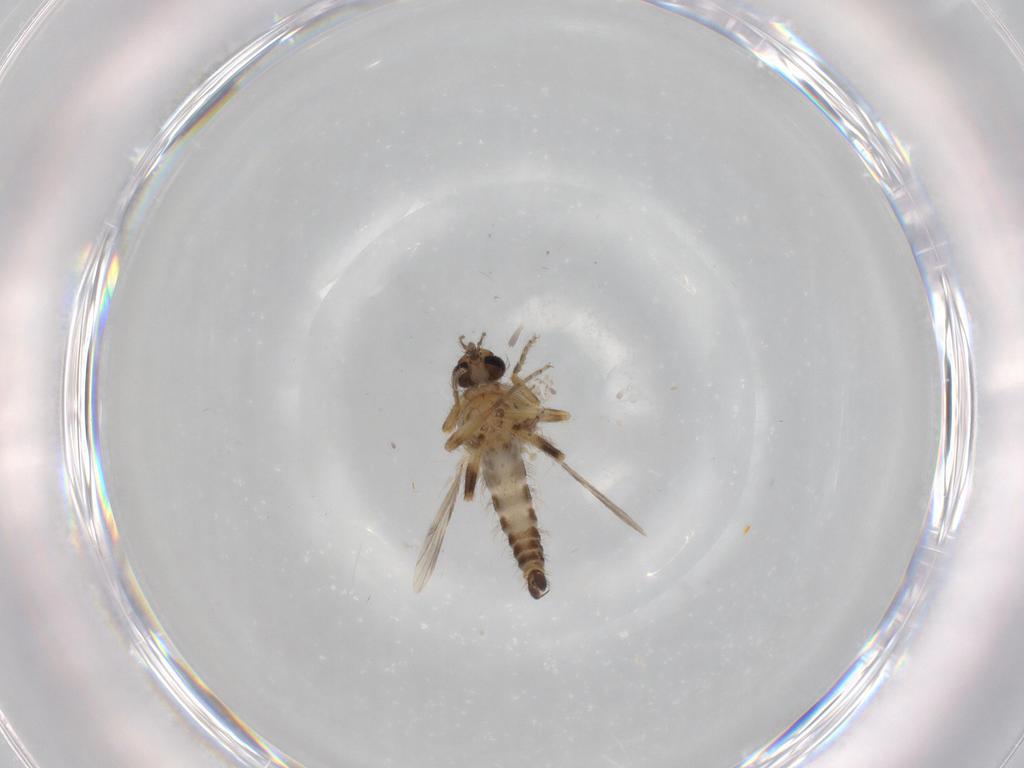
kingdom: Animalia
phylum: Arthropoda
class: Insecta
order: Diptera
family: Ceratopogonidae
